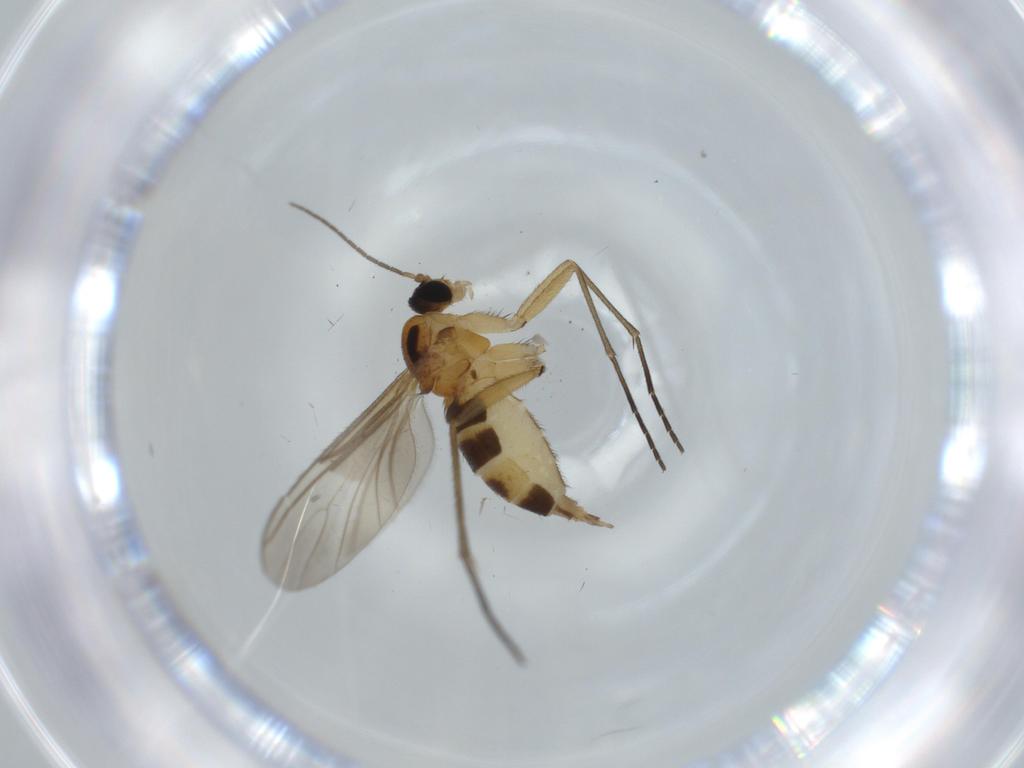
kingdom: Animalia
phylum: Arthropoda
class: Insecta
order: Diptera
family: Sciaridae
